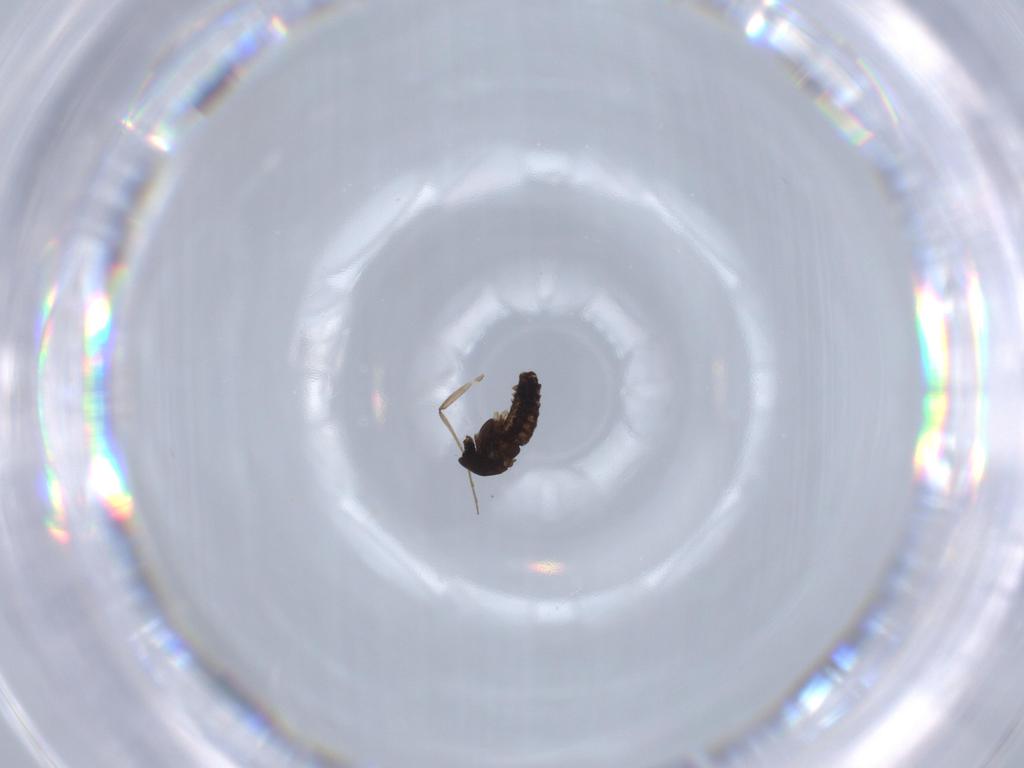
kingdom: Animalia
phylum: Arthropoda
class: Insecta
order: Diptera
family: Chironomidae
